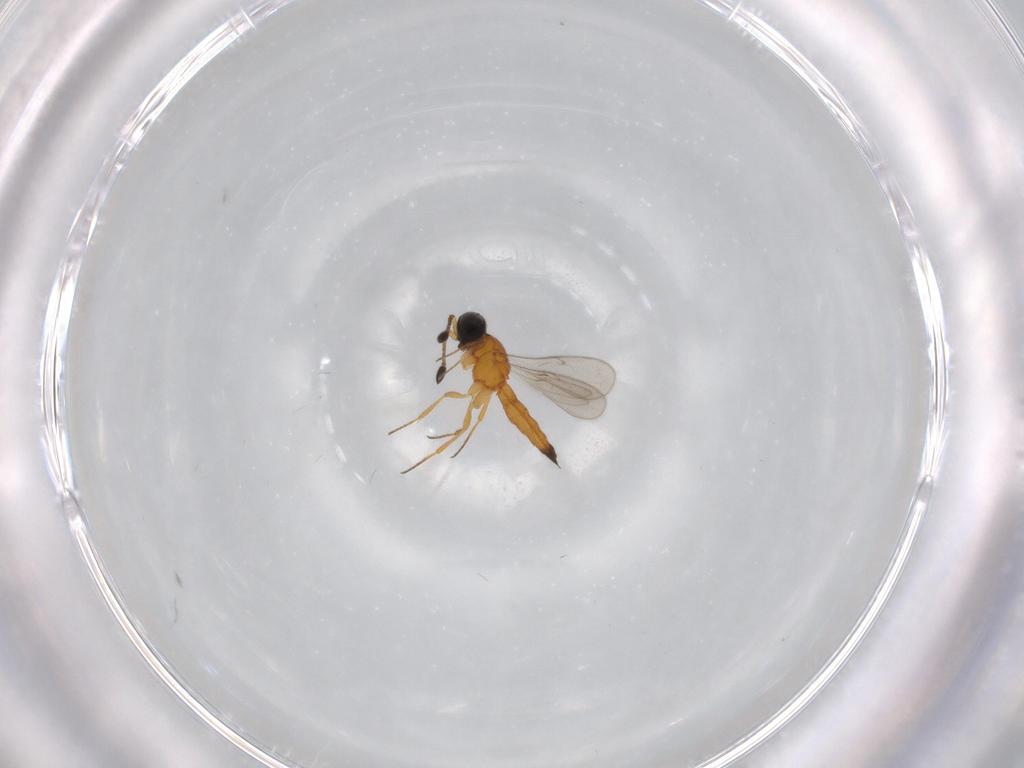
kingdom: Animalia
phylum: Arthropoda
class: Insecta
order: Hymenoptera
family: Scelionidae
